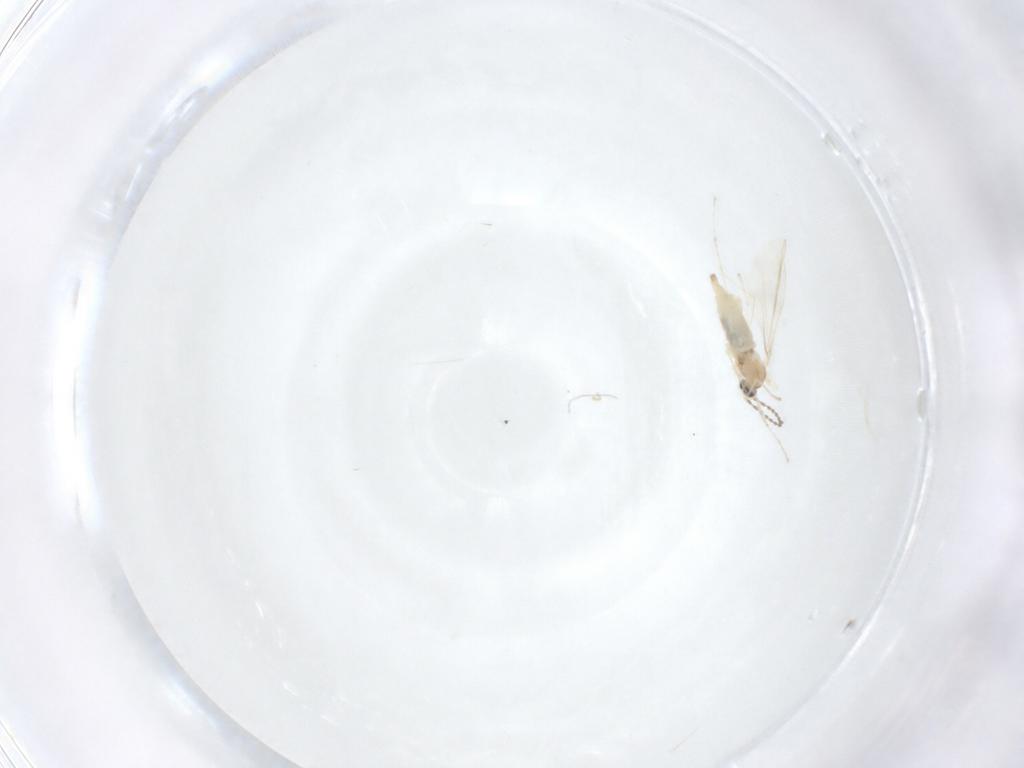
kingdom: Animalia
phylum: Arthropoda
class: Insecta
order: Diptera
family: Cecidomyiidae
